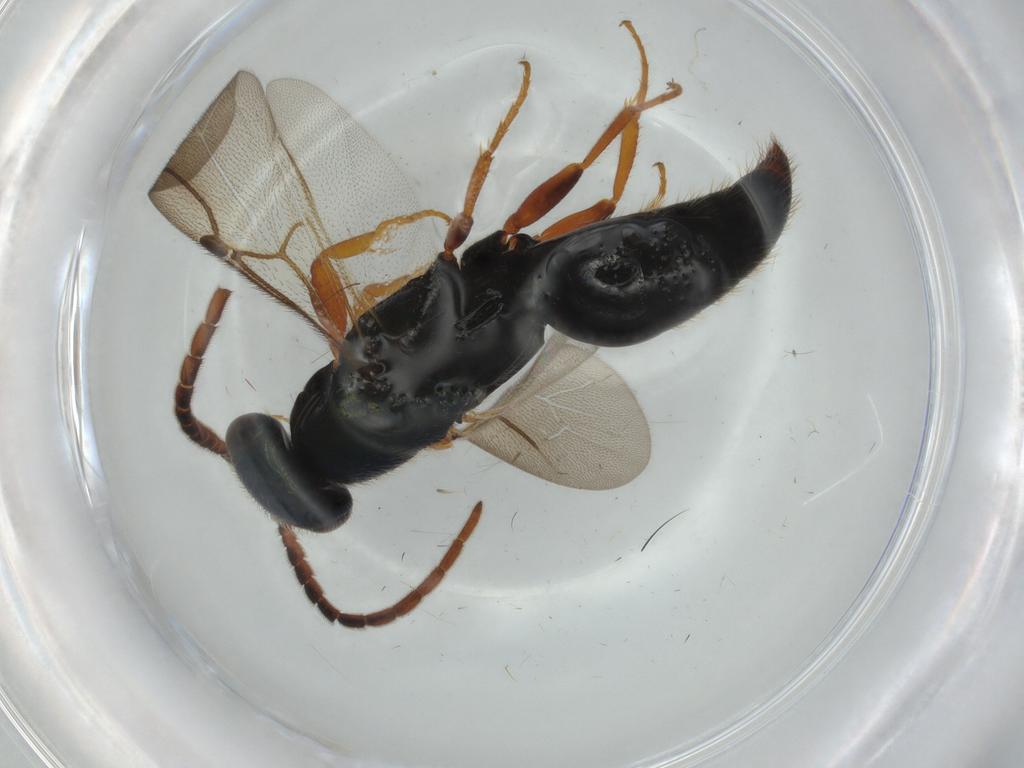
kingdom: Animalia
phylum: Arthropoda
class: Insecta
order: Hymenoptera
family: Bethylidae
